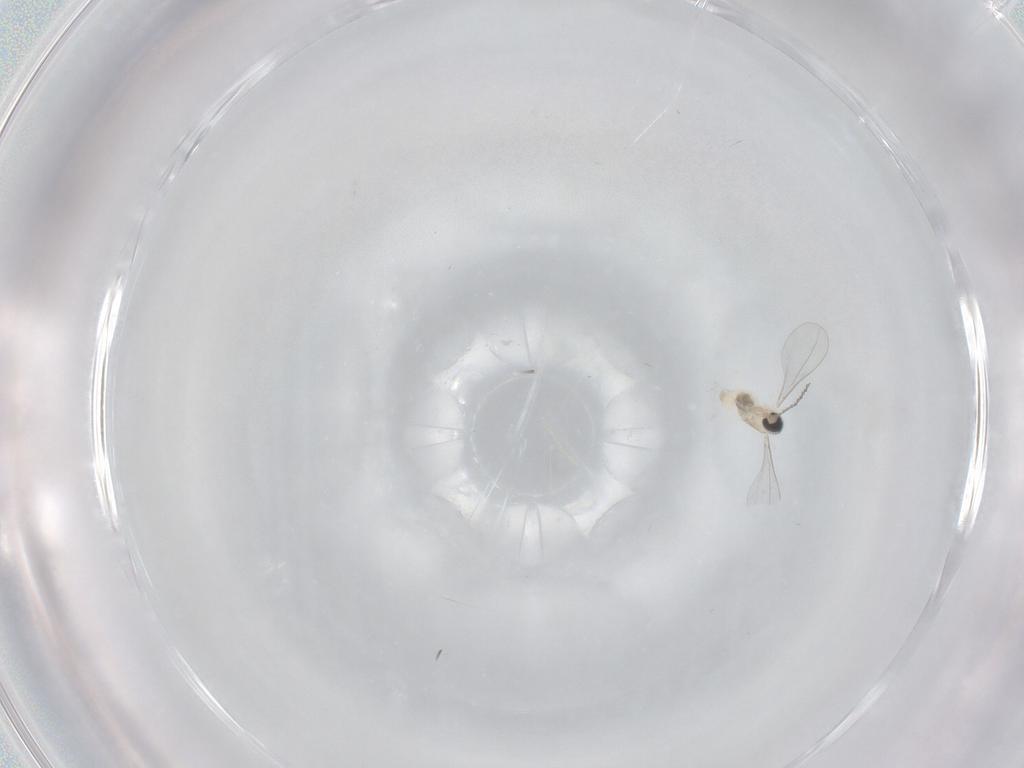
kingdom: Animalia
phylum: Arthropoda
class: Insecta
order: Diptera
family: Cecidomyiidae
